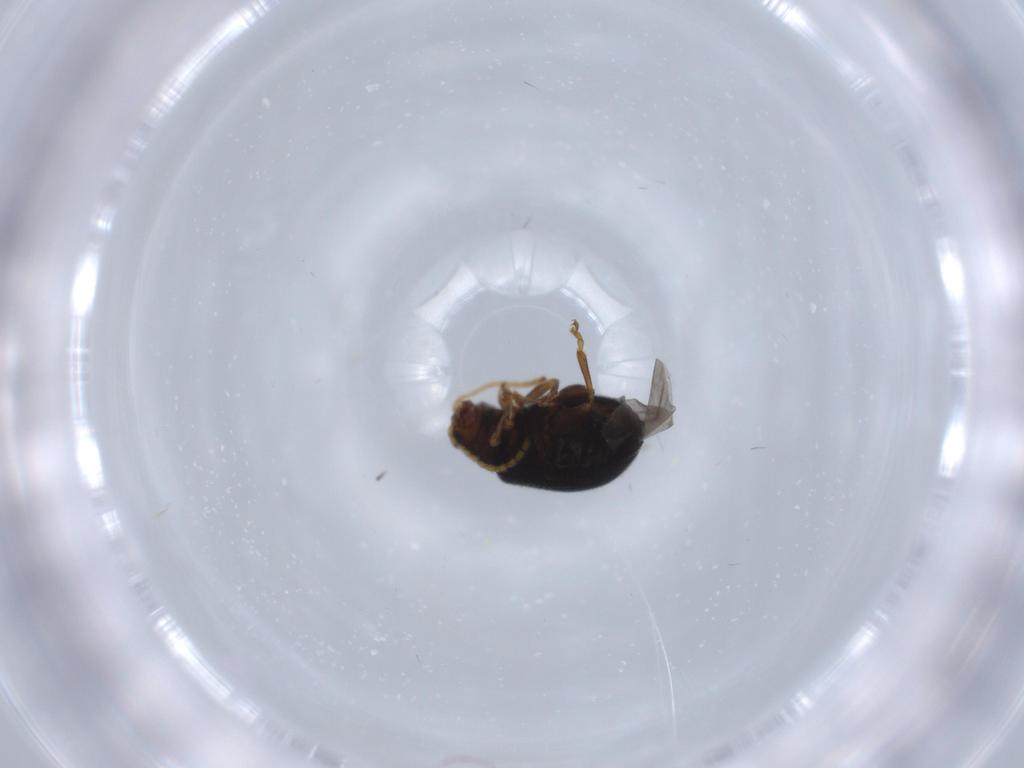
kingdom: Animalia
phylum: Arthropoda
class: Insecta
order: Coleoptera
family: Chrysomelidae
